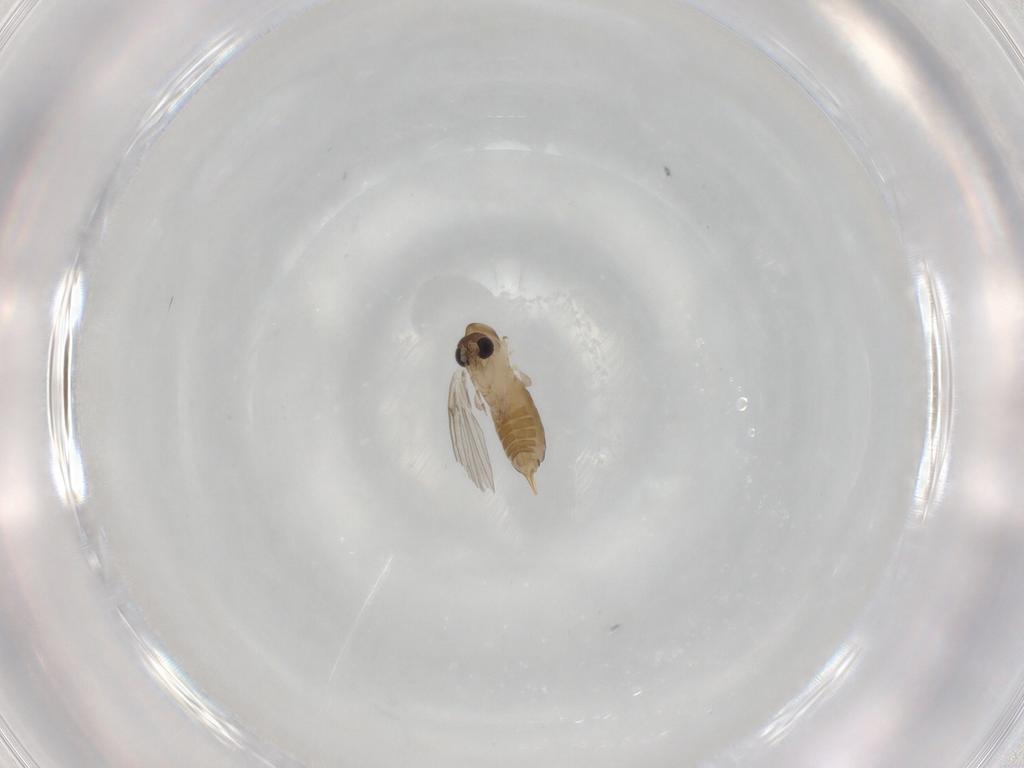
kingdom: Animalia
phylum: Arthropoda
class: Insecta
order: Diptera
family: Psychodidae
